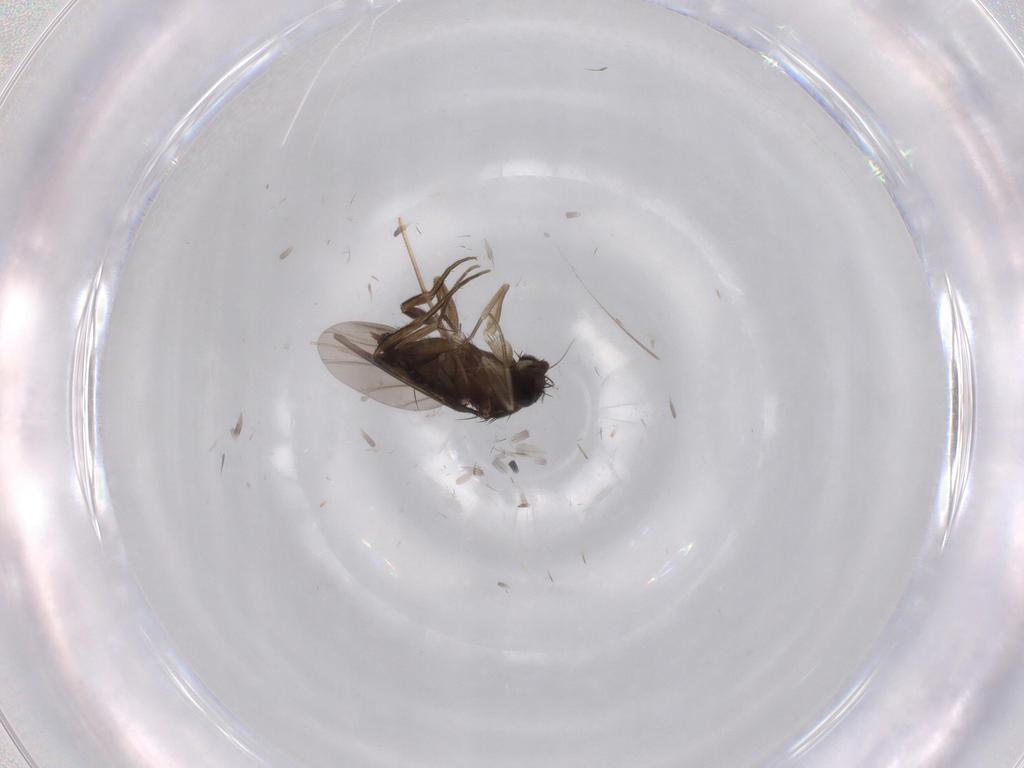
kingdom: Animalia
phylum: Arthropoda
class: Insecta
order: Diptera
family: Phoridae
